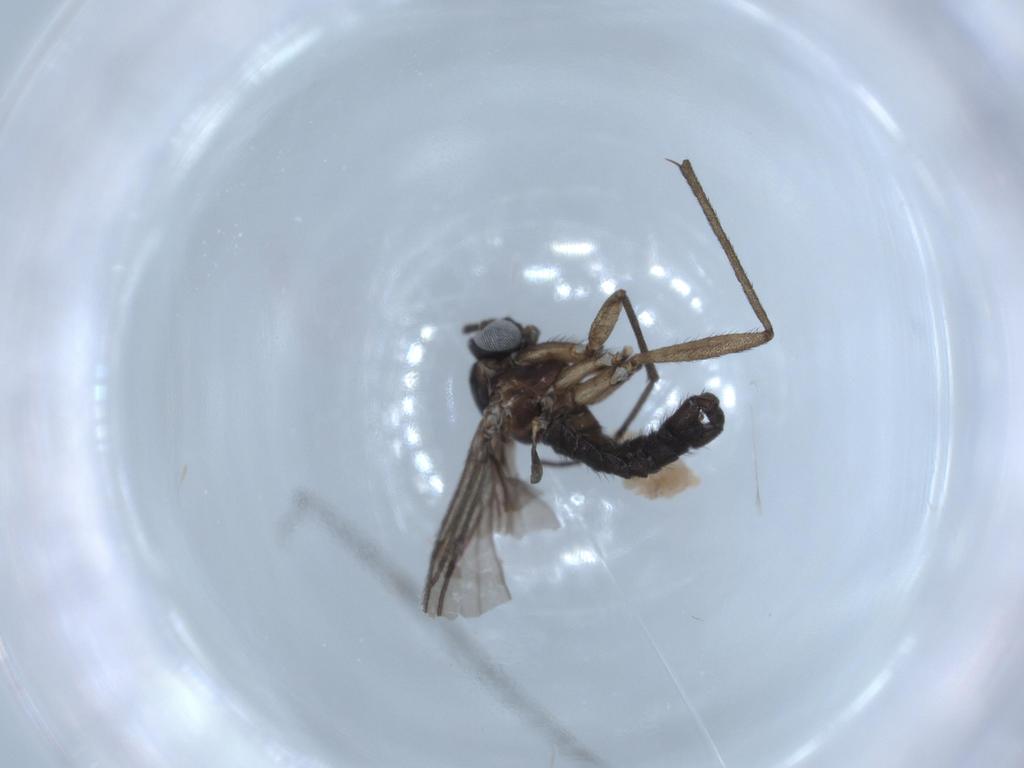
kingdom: Animalia
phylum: Arthropoda
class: Insecta
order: Diptera
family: Sciaridae
